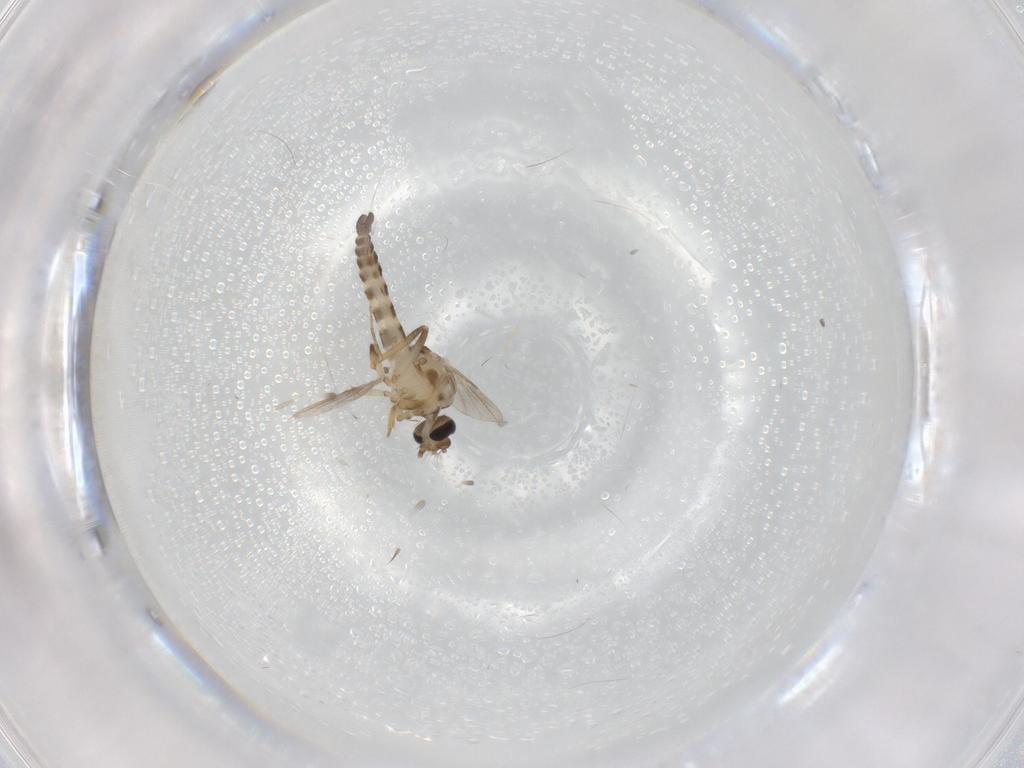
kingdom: Animalia
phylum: Arthropoda
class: Insecta
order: Diptera
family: Ceratopogonidae
